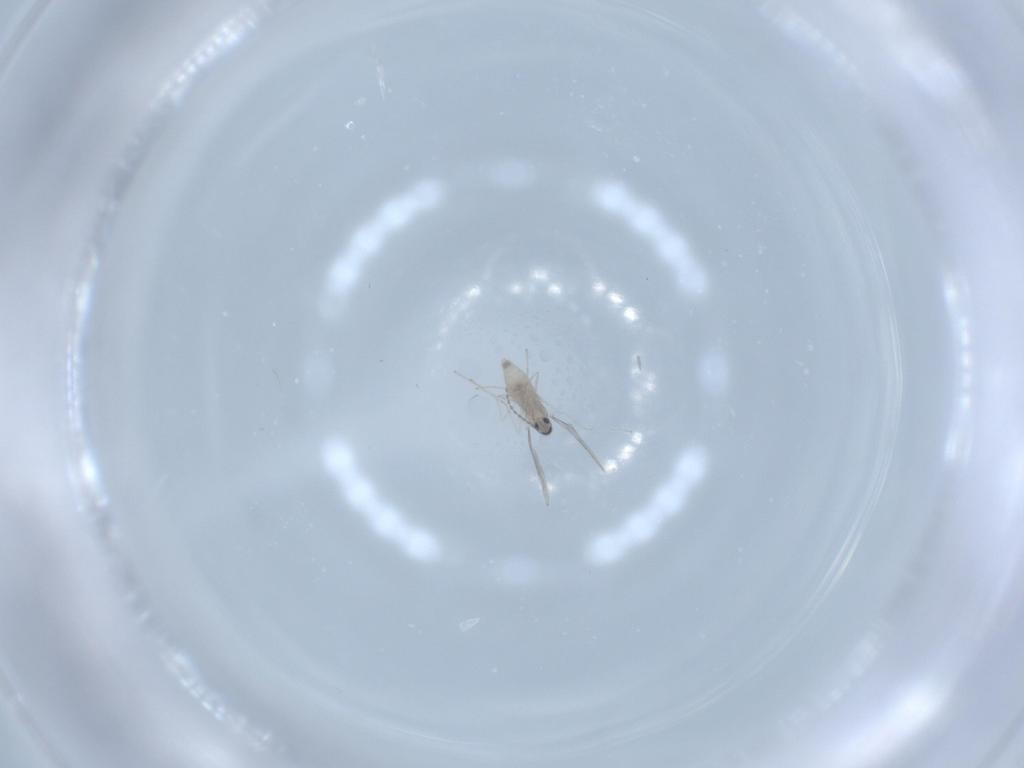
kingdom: Animalia
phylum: Arthropoda
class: Insecta
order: Diptera
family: Cecidomyiidae
